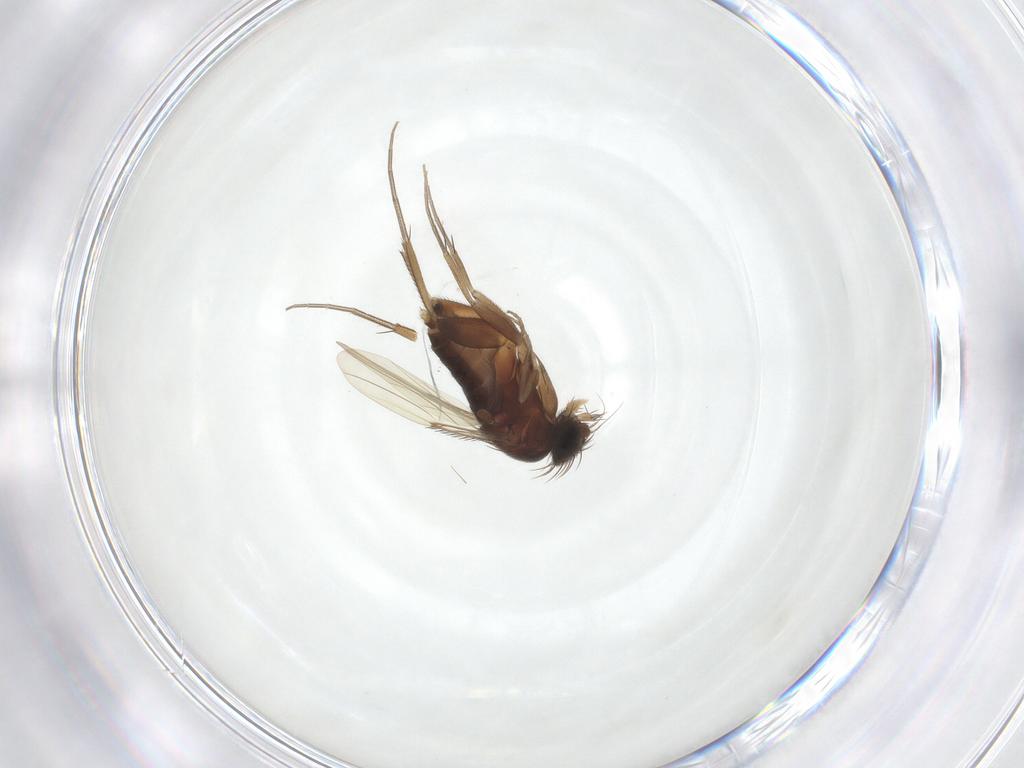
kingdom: Animalia
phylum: Arthropoda
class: Insecta
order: Diptera
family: Phoridae
